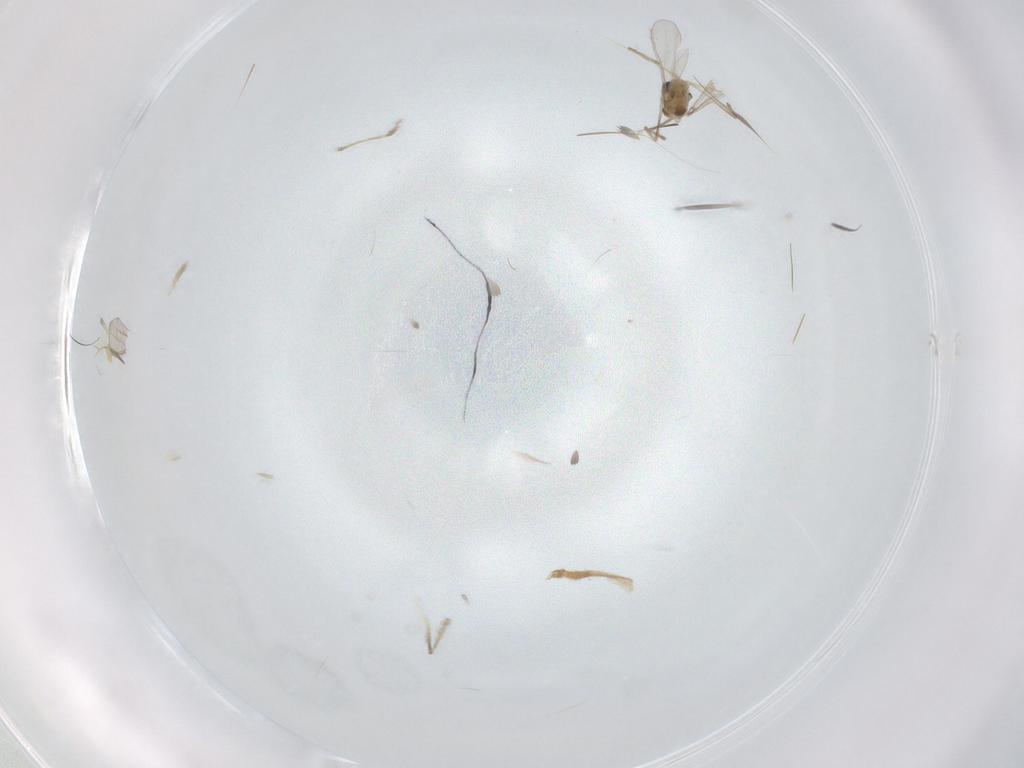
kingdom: Animalia
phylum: Arthropoda
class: Insecta
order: Diptera
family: Chironomidae
